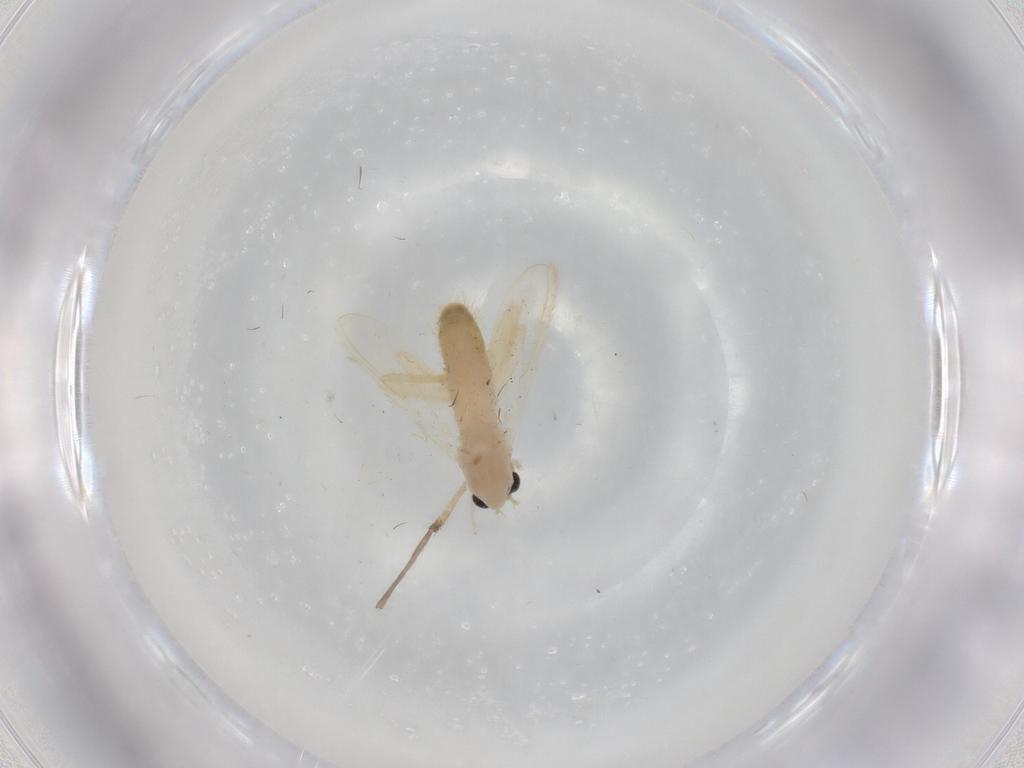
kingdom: Animalia
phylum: Arthropoda
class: Insecta
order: Diptera
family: Chironomidae
